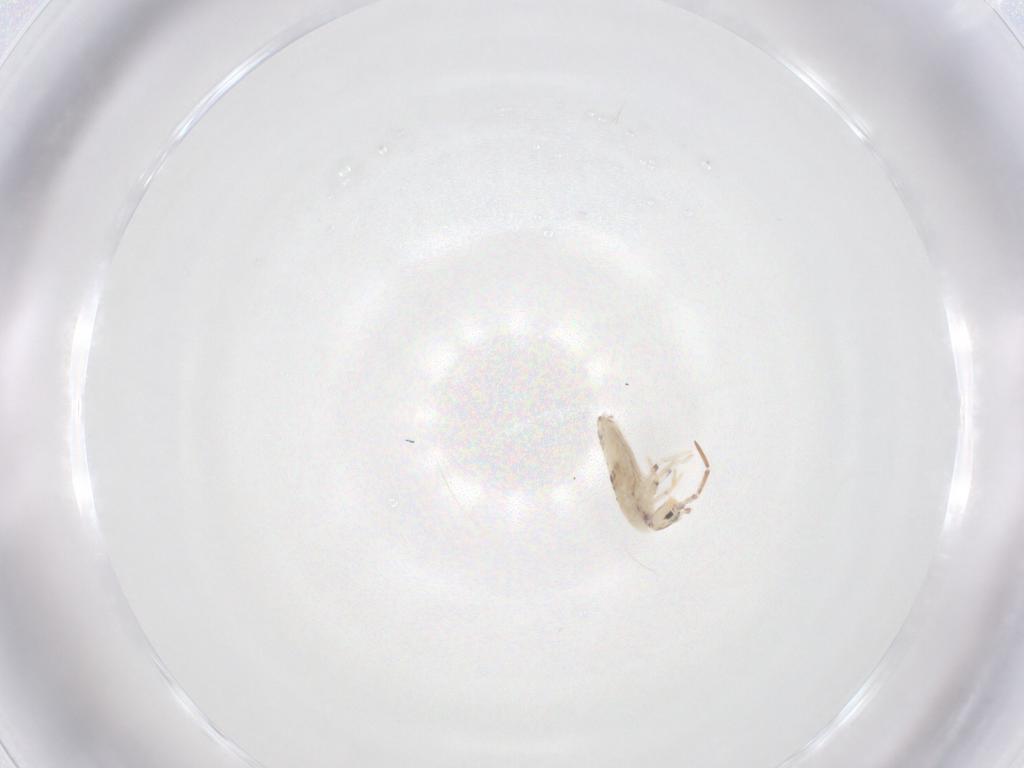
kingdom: Animalia
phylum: Arthropoda
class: Collembola
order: Entomobryomorpha
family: Entomobryidae
